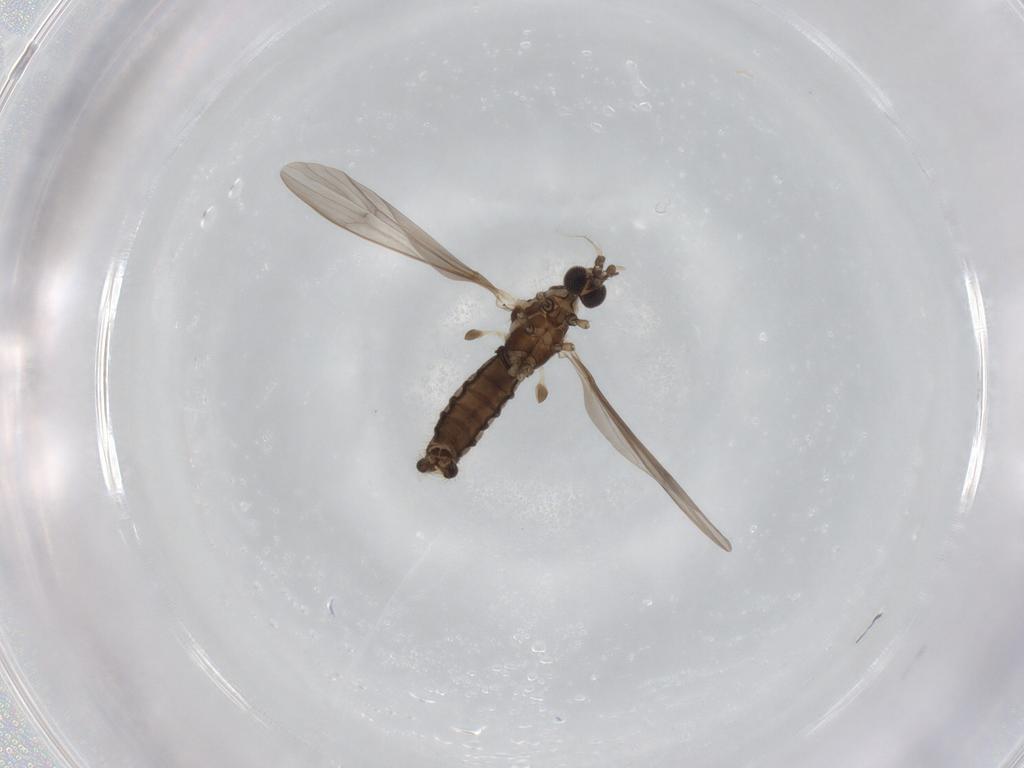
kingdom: Animalia
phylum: Arthropoda
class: Insecta
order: Diptera
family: Limoniidae
